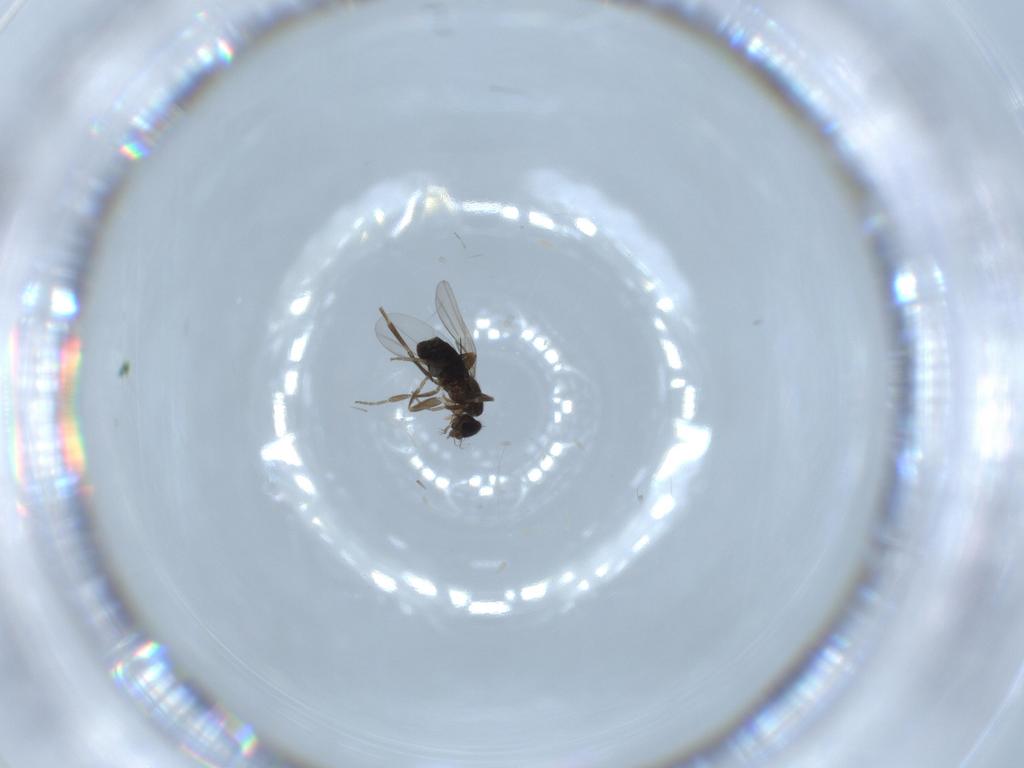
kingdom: Animalia
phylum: Arthropoda
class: Insecta
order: Diptera
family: Phoridae
